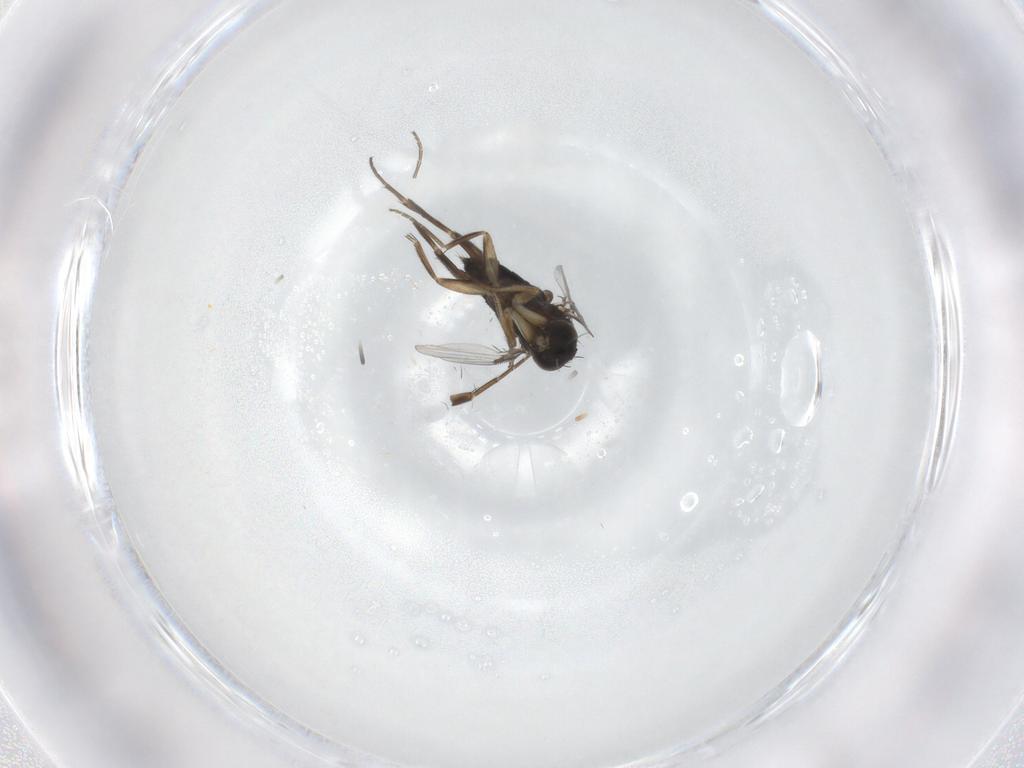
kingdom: Animalia
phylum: Arthropoda
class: Insecta
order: Diptera
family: Phoridae
